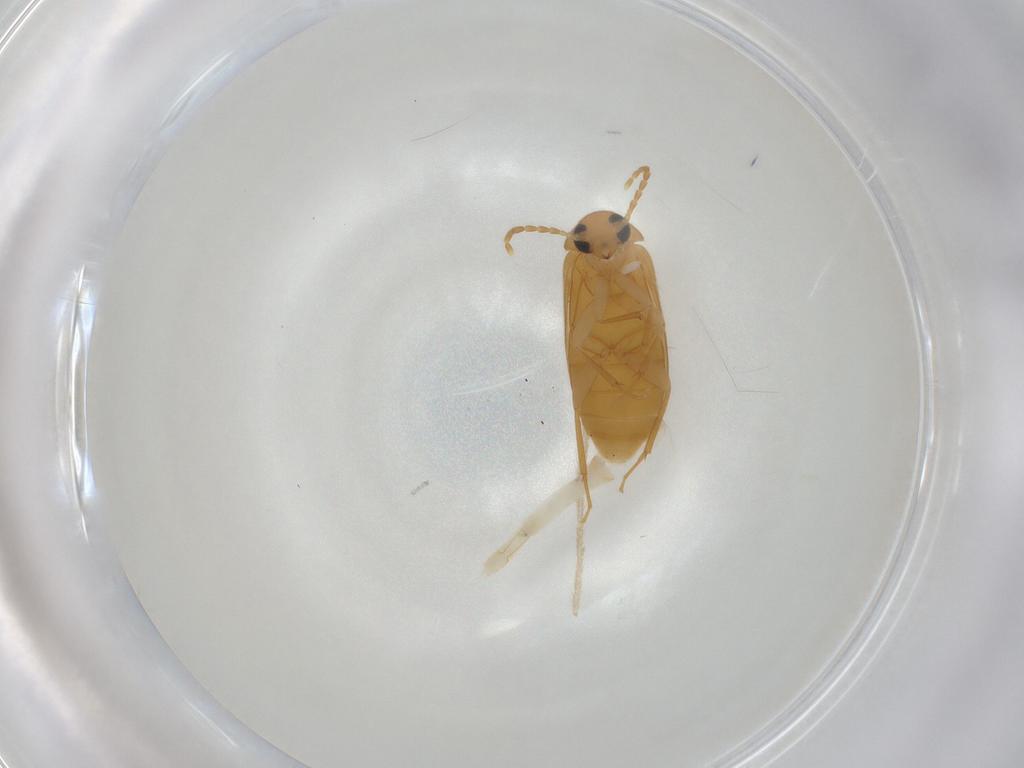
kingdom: Animalia
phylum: Arthropoda
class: Insecta
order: Coleoptera
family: Scraptiidae
